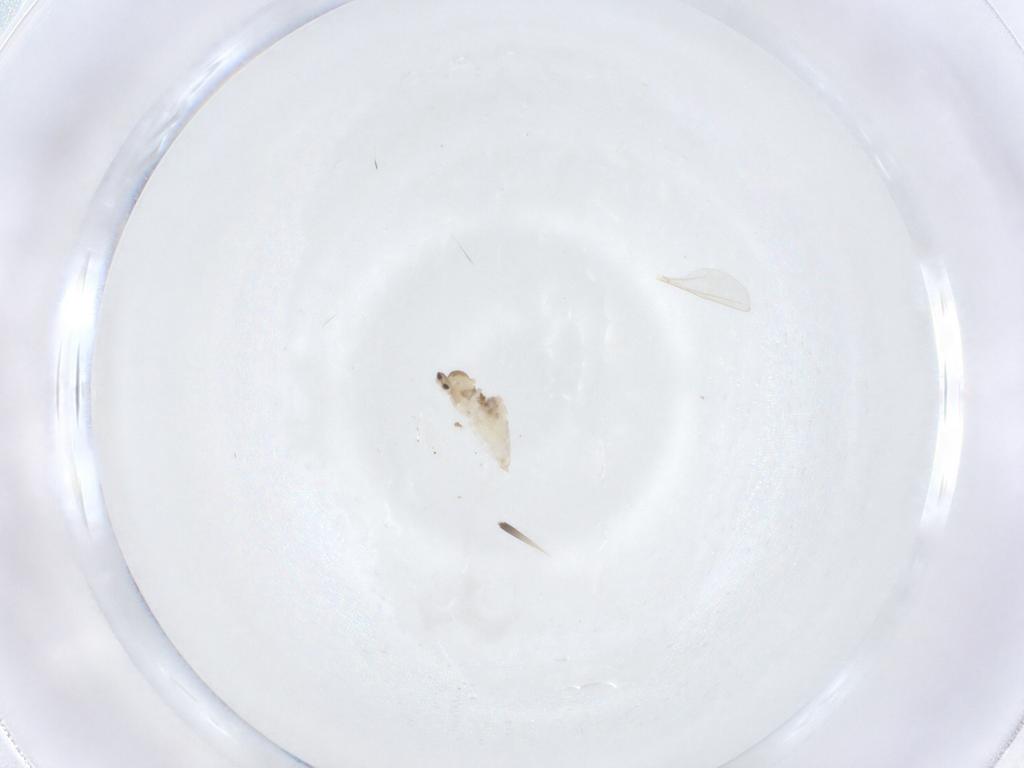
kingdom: Animalia
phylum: Arthropoda
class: Insecta
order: Diptera
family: Cecidomyiidae
